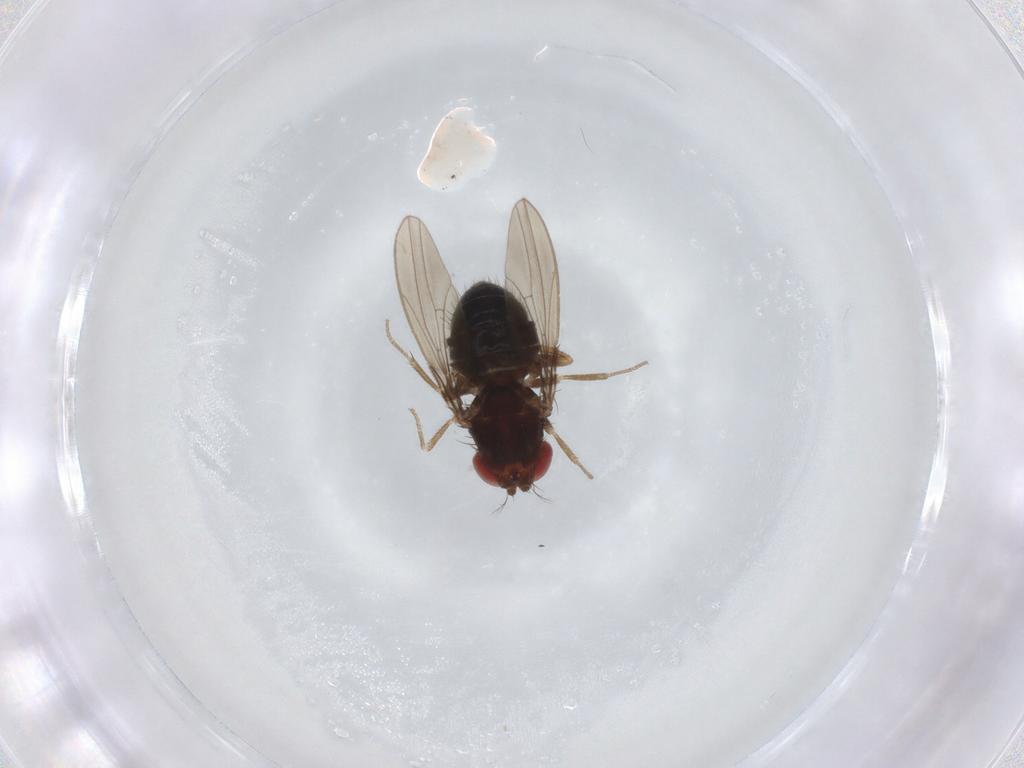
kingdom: Animalia
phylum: Arthropoda
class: Insecta
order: Diptera
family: Drosophilidae
